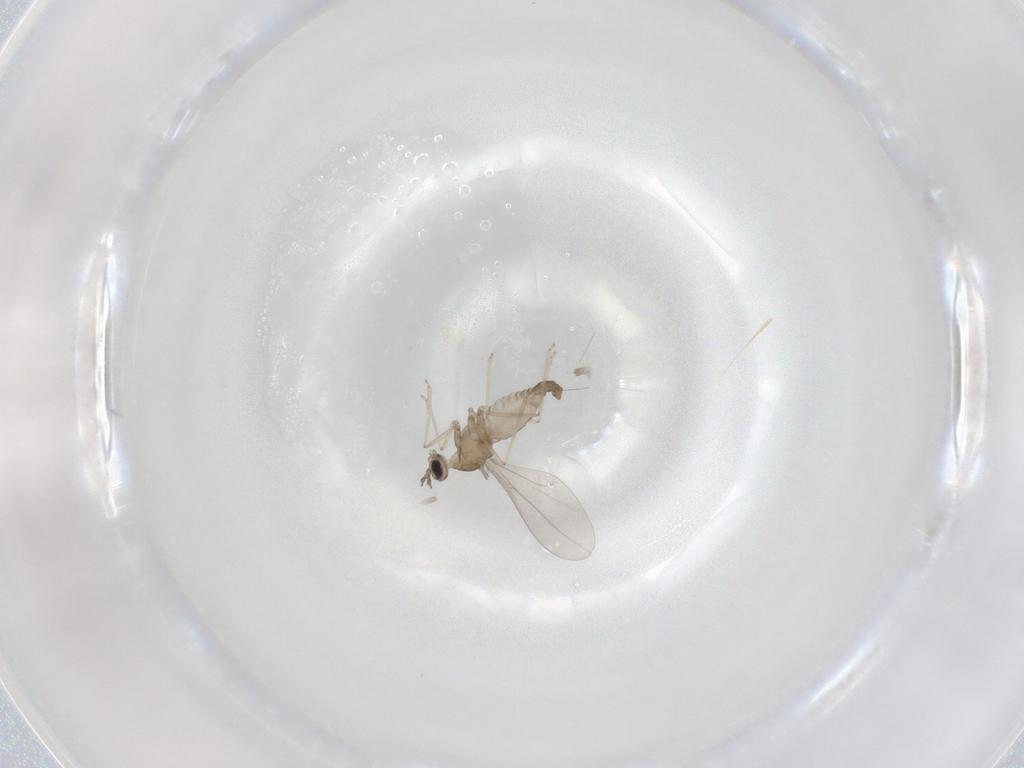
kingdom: Animalia
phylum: Arthropoda
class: Insecta
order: Diptera
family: Cecidomyiidae
